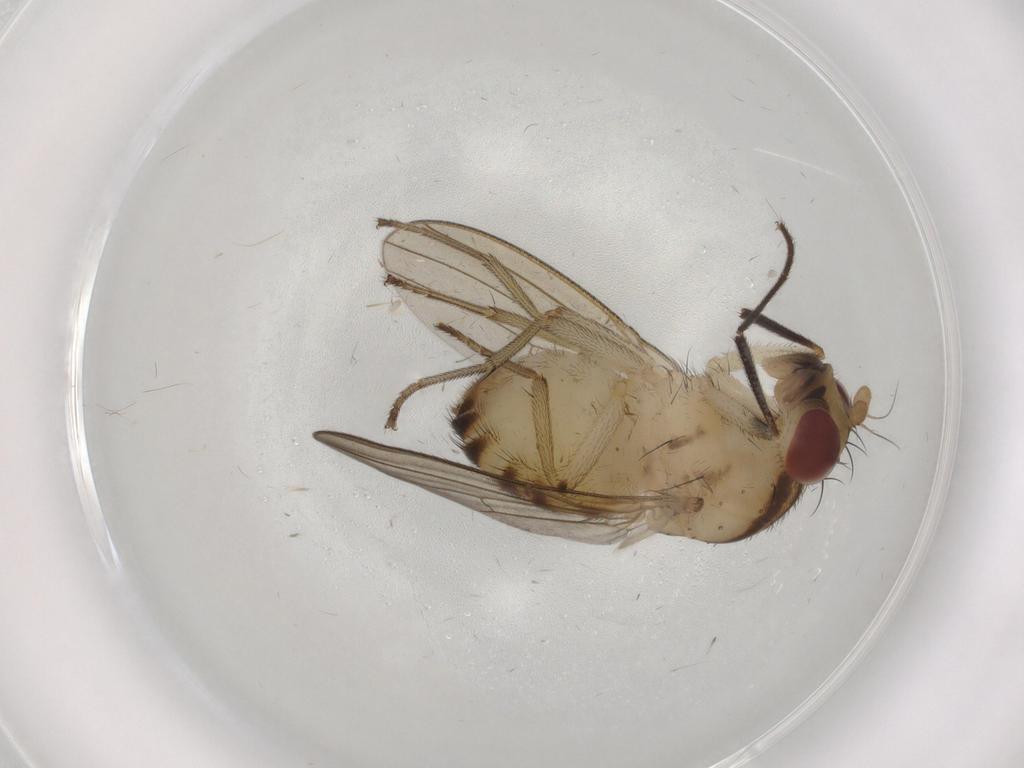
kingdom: Animalia
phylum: Arthropoda
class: Insecta
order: Diptera
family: Lauxaniidae
